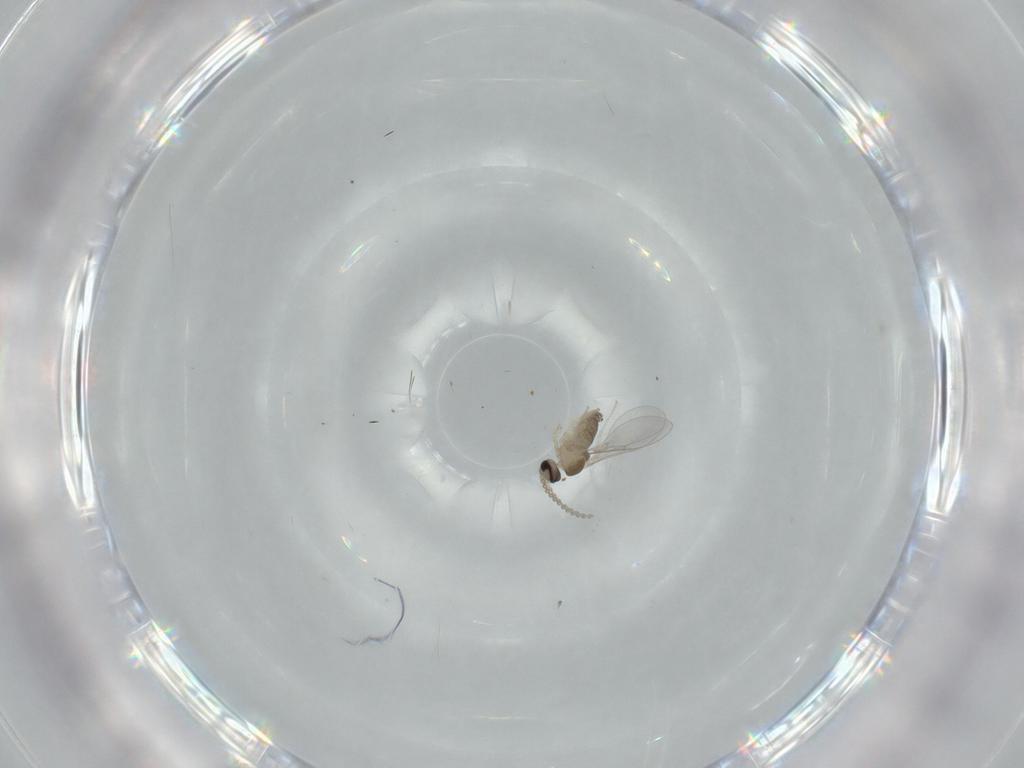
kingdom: Animalia
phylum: Arthropoda
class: Insecta
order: Diptera
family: Cecidomyiidae
